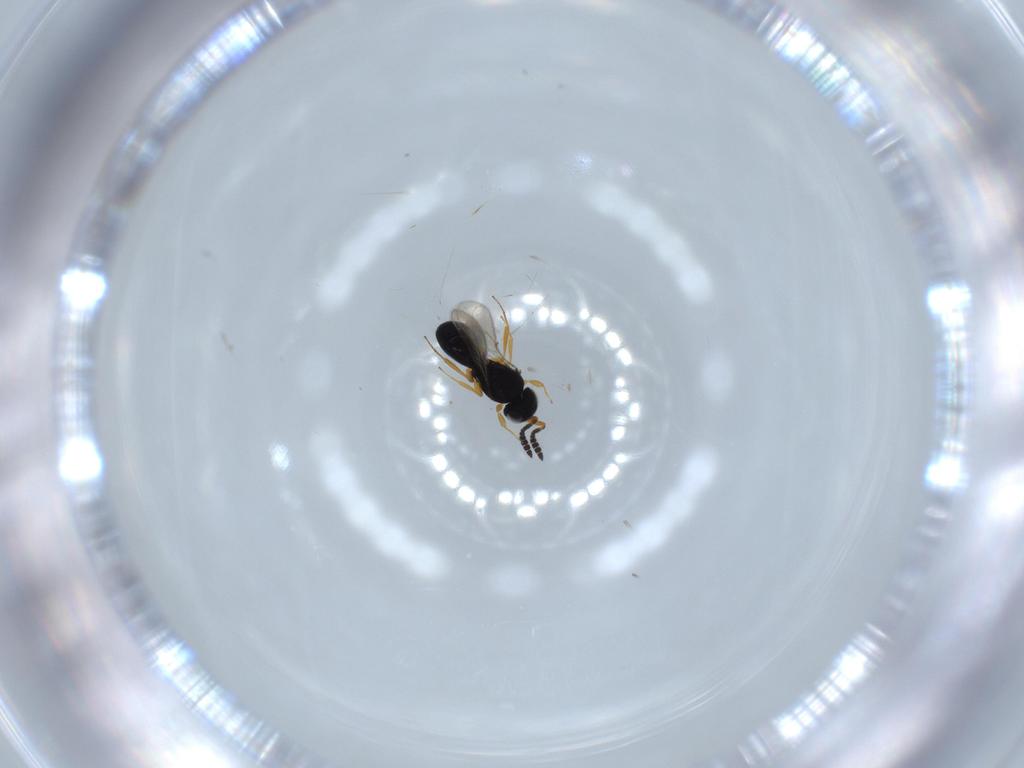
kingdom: Animalia
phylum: Arthropoda
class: Insecta
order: Hymenoptera
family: Scelionidae
